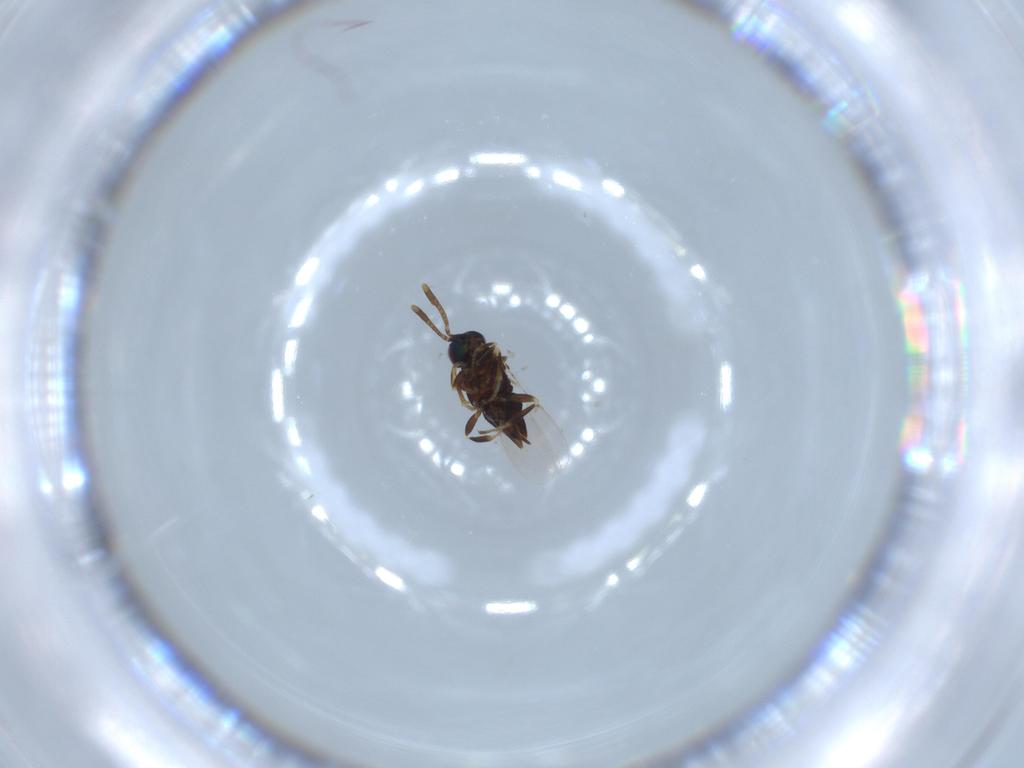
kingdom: Animalia
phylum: Arthropoda
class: Insecta
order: Hymenoptera
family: Encyrtidae
